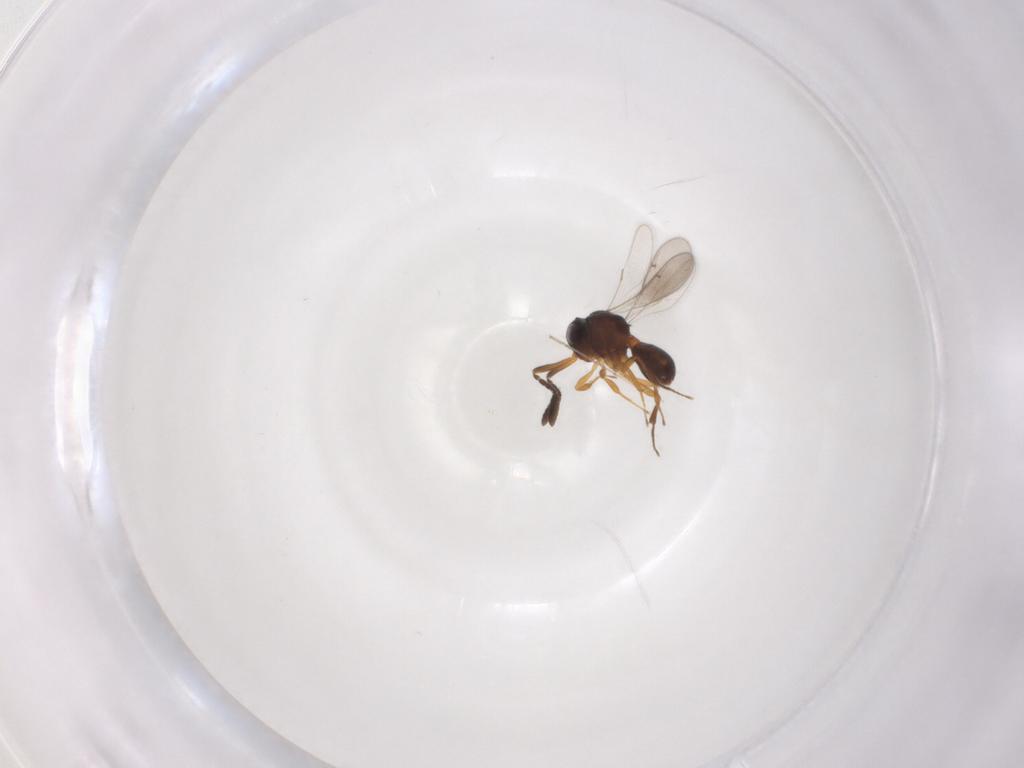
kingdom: Animalia
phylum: Arthropoda
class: Insecta
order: Hymenoptera
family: Scelionidae
